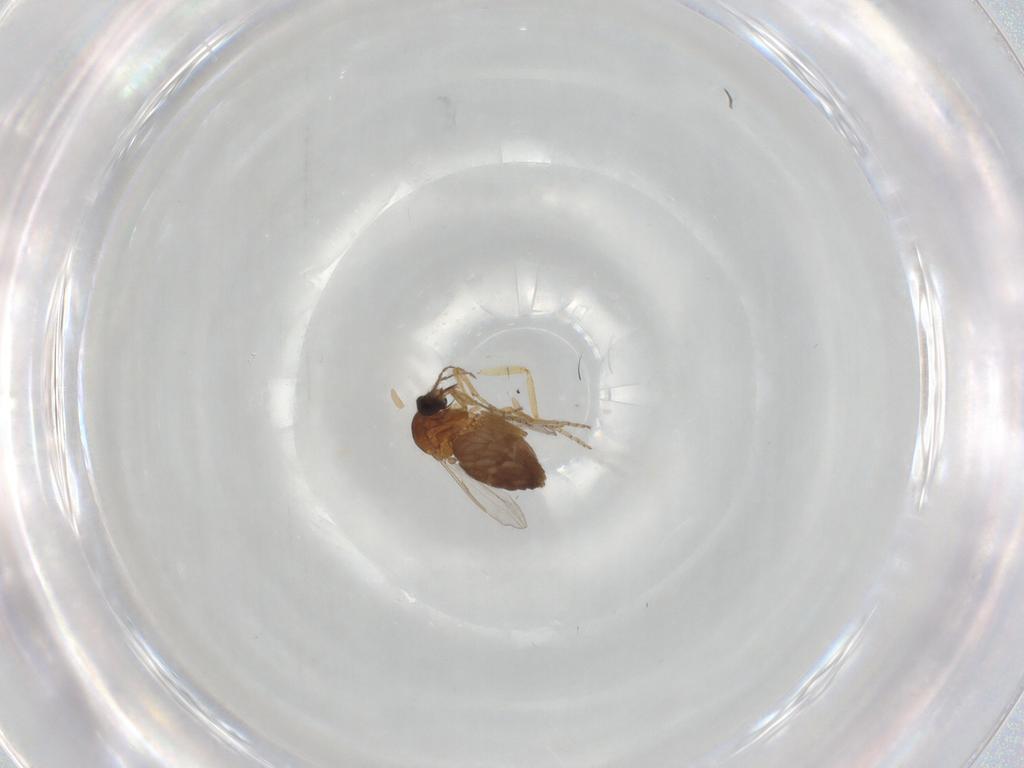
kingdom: Animalia
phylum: Arthropoda
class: Insecta
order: Diptera
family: Ceratopogonidae
